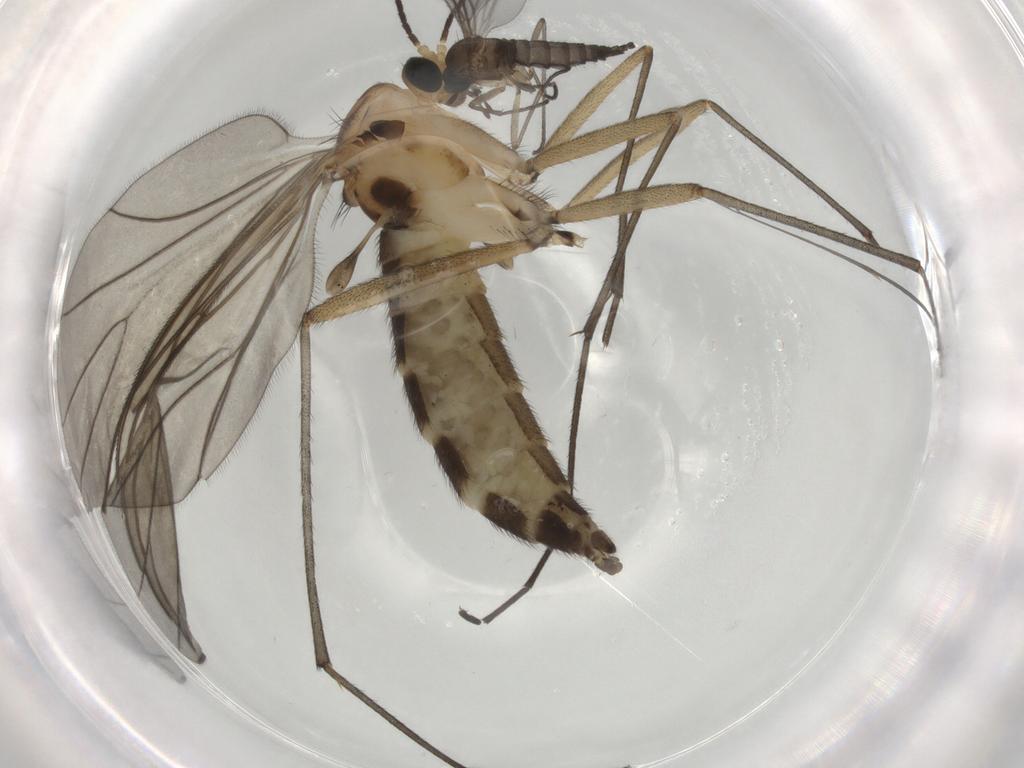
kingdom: Animalia
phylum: Arthropoda
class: Insecta
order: Diptera
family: Sciaridae
